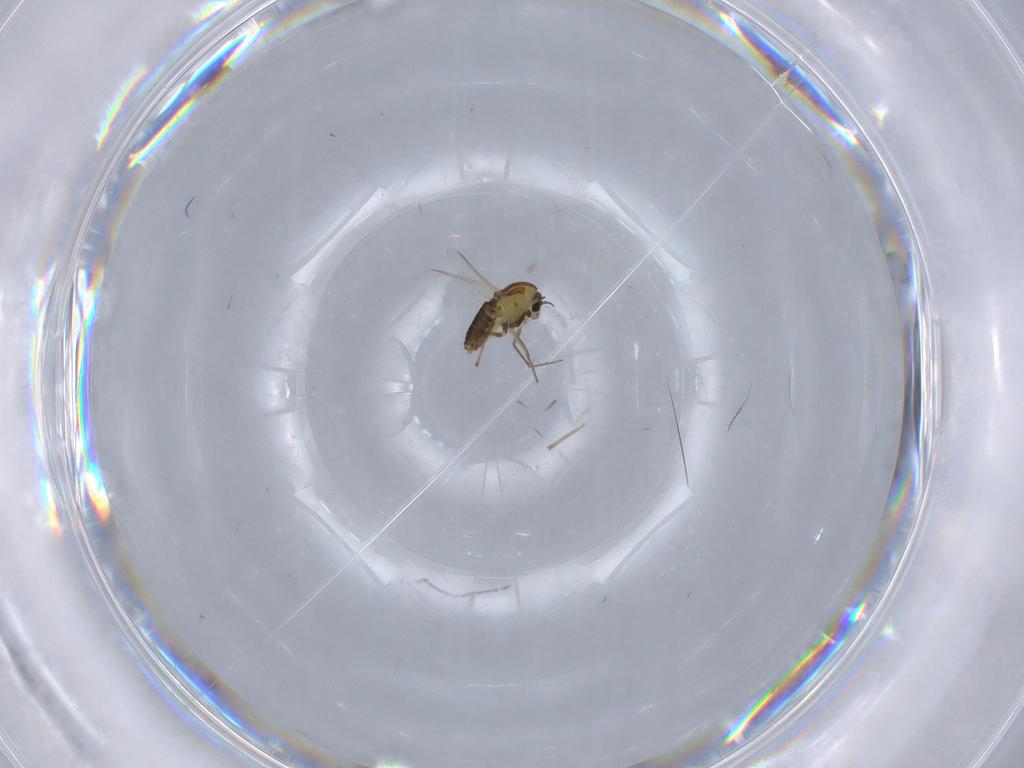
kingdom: Animalia
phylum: Arthropoda
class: Insecta
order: Diptera
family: Chironomidae
